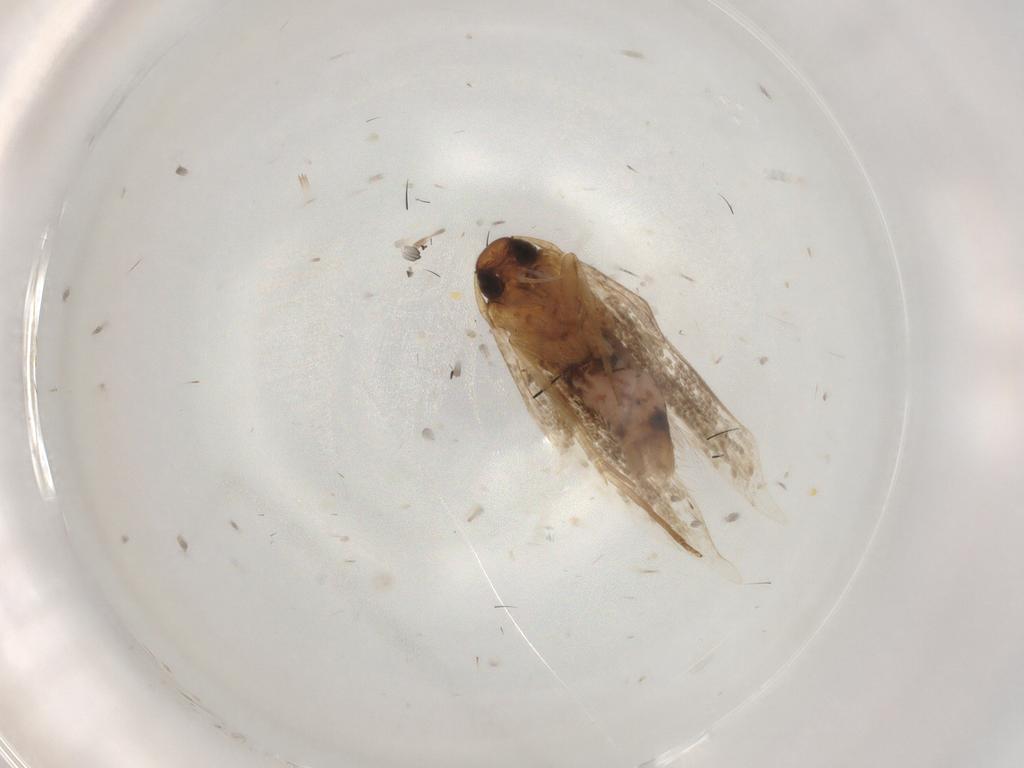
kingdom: Animalia
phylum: Arthropoda
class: Insecta
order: Lepidoptera
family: Cosmopterigidae
